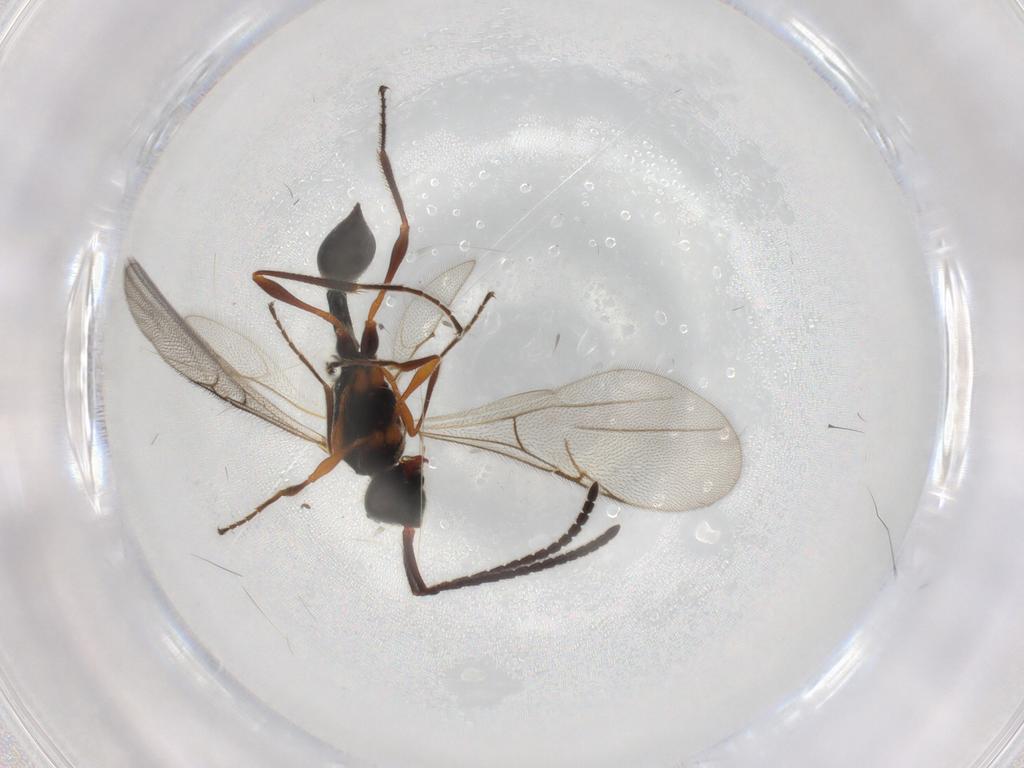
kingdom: Animalia
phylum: Arthropoda
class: Insecta
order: Hymenoptera
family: Diapriidae
